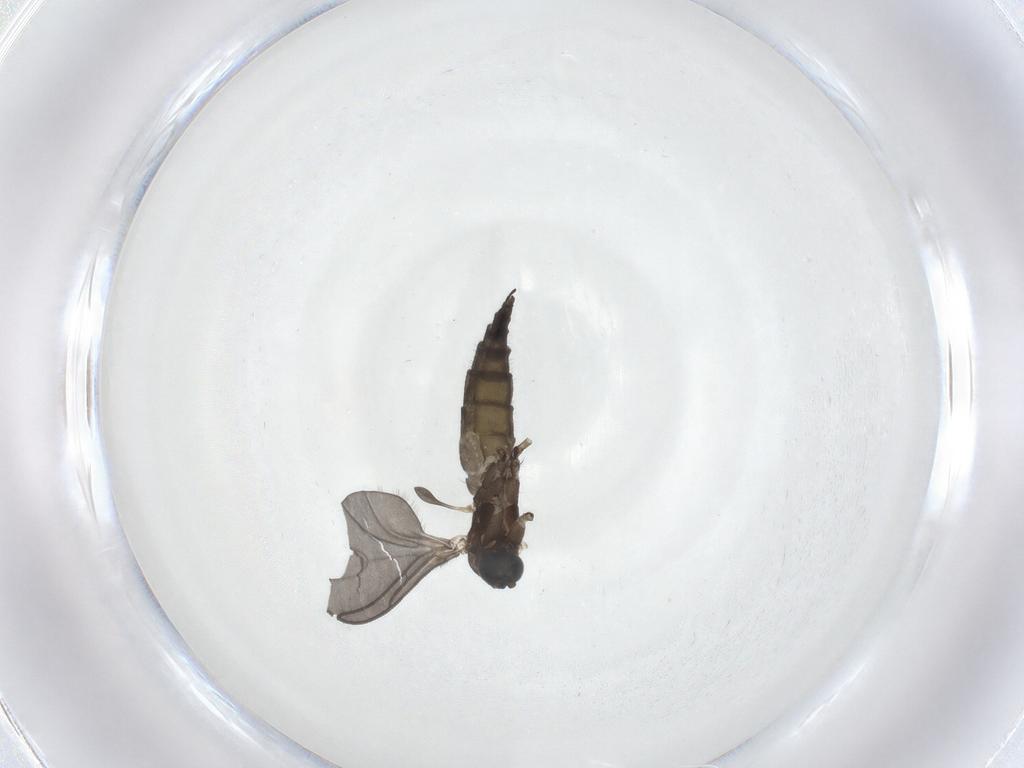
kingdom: Animalia
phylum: Arthropoda
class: Insecta
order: Diptera
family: Sciaridae
